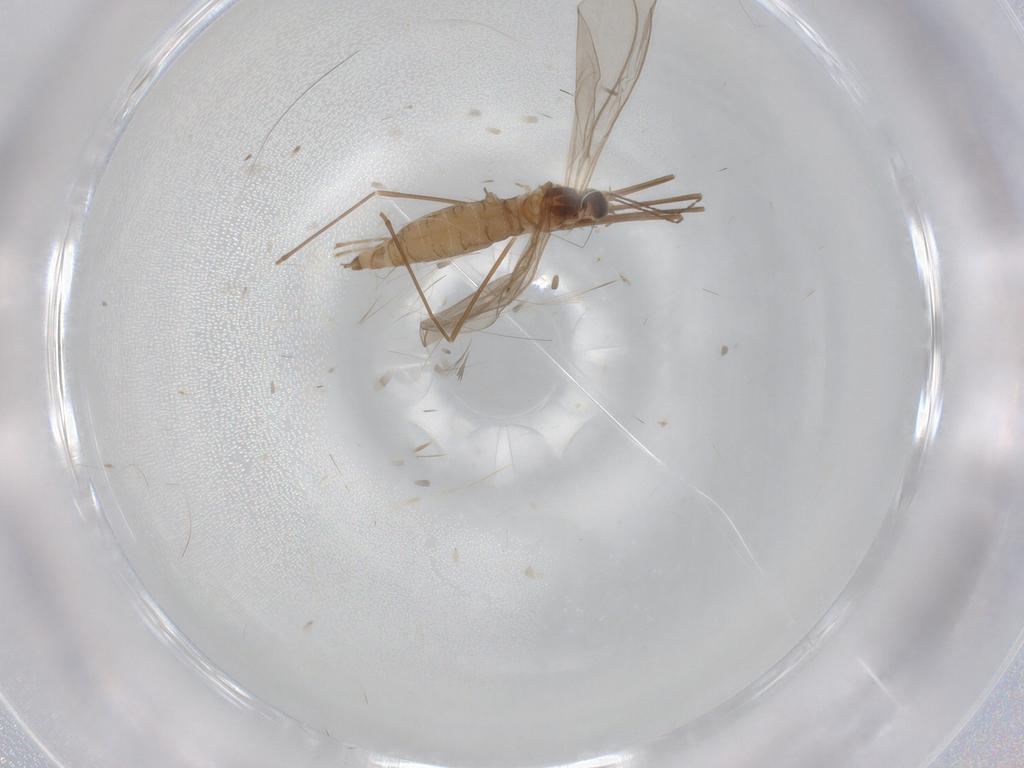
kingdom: Animalia
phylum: Arthropoda
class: Insecta
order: Diptera
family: Cecidomyiidae
